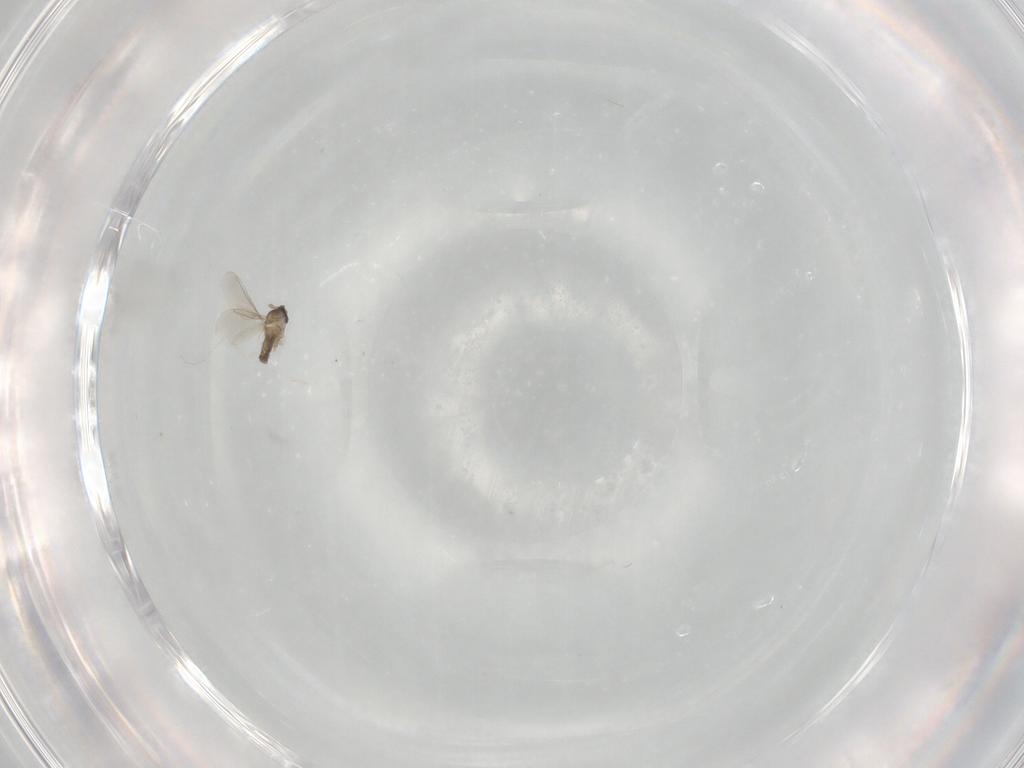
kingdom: Animalia
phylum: Arthropoda
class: Insecta
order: Diptera
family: Cecidomyiidae
